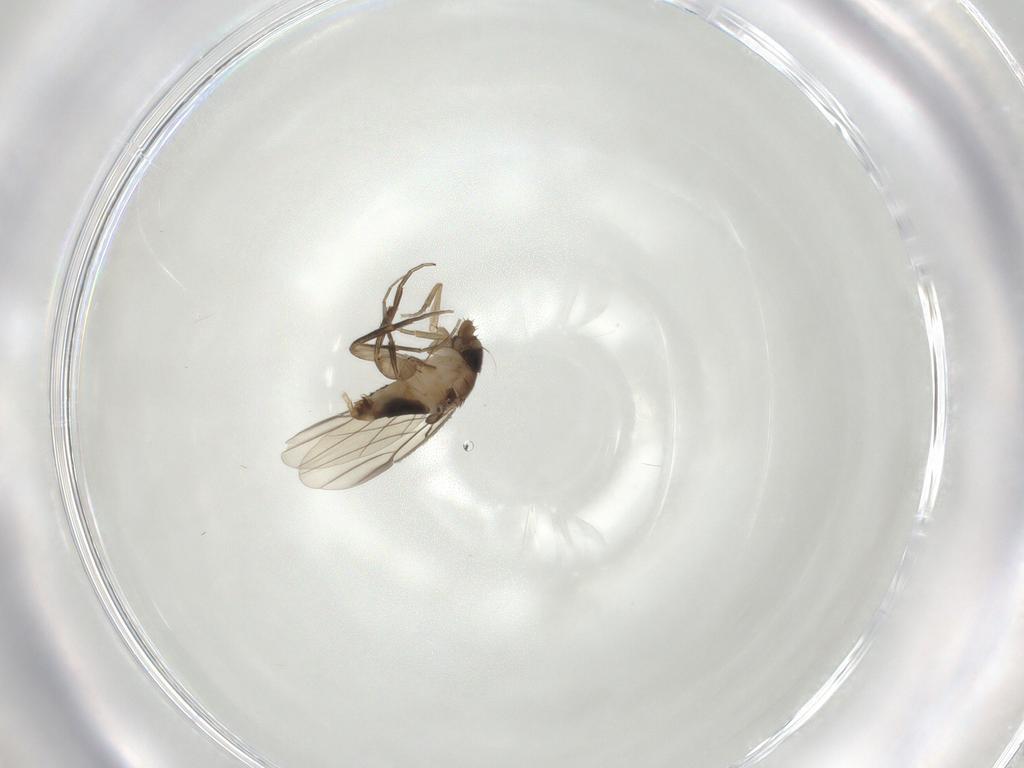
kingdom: Animalia
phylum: Arthropoda
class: Insecta
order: Diptera
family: Phoridae
